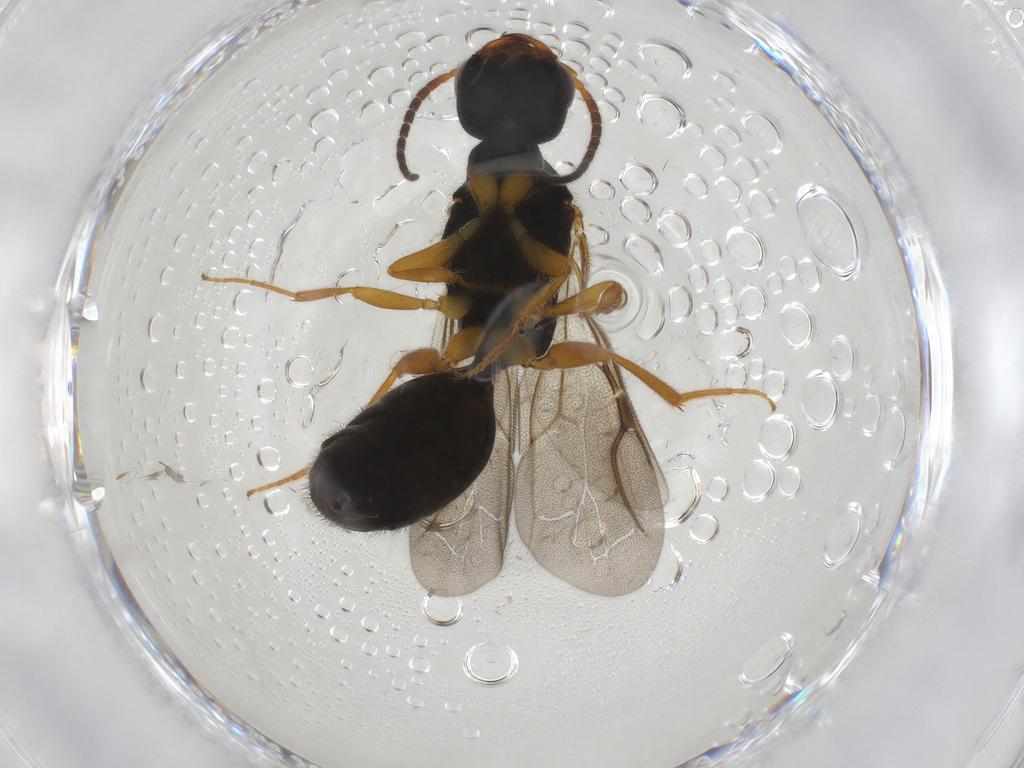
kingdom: Animalia
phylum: Arthropoda
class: Insecta
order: Hymenoptera
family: Bethylidae
